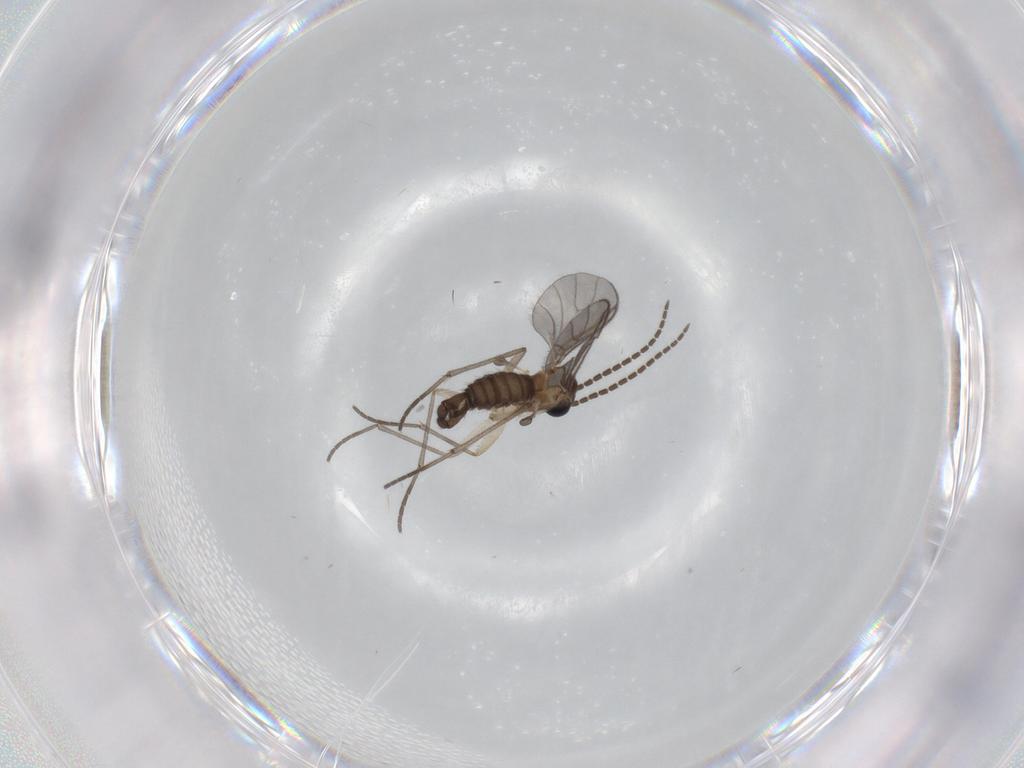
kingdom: Animalia
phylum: Arthropoda
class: Insecta
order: Diptera
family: Sciaridae
